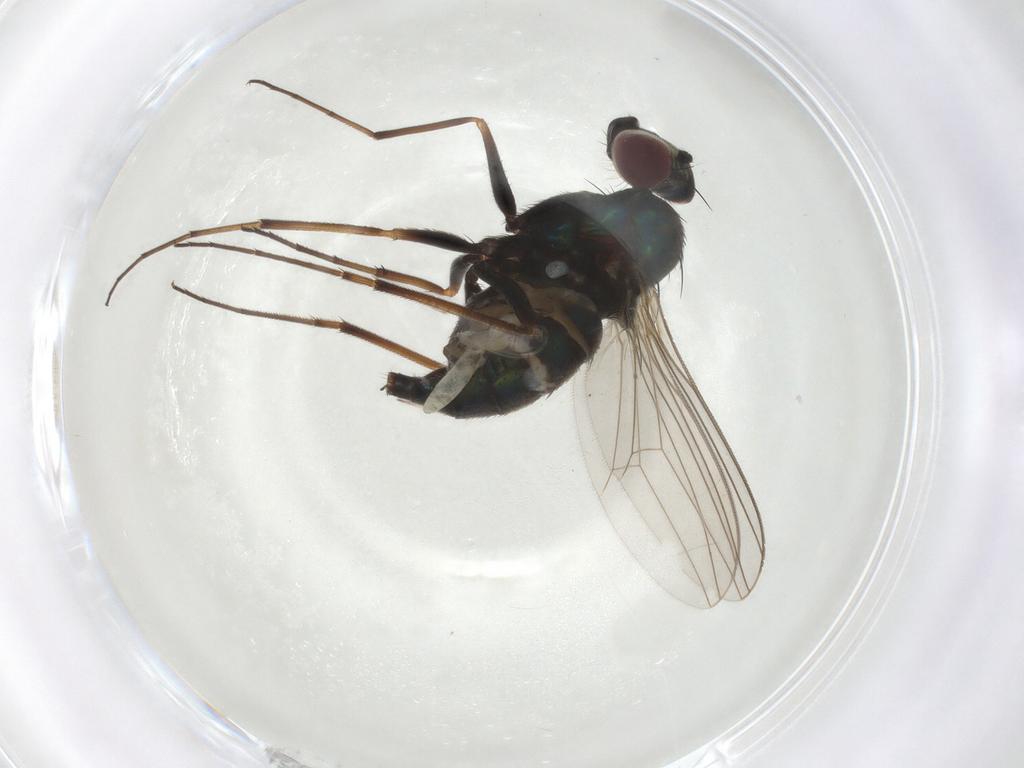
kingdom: Animalia
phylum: Arthropoda
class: Insecta
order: Diptera
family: Dolichopodidae
